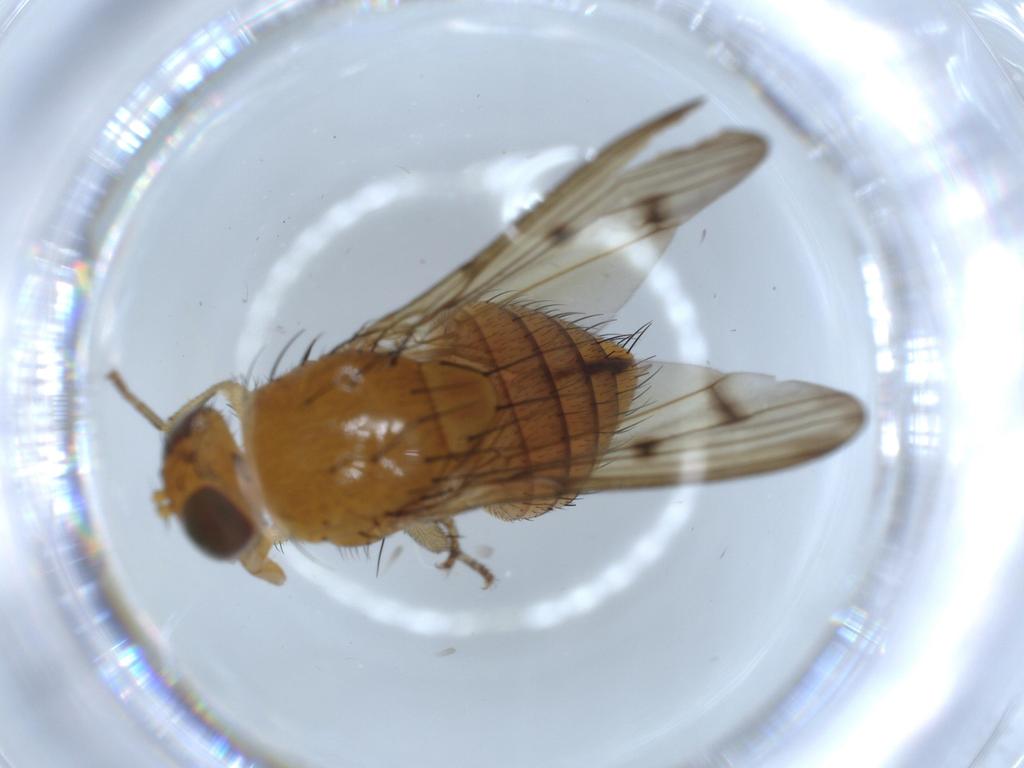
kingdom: Animalia
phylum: Arthropoda
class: Insecta
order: Diptera
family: Cecidomyiidae
